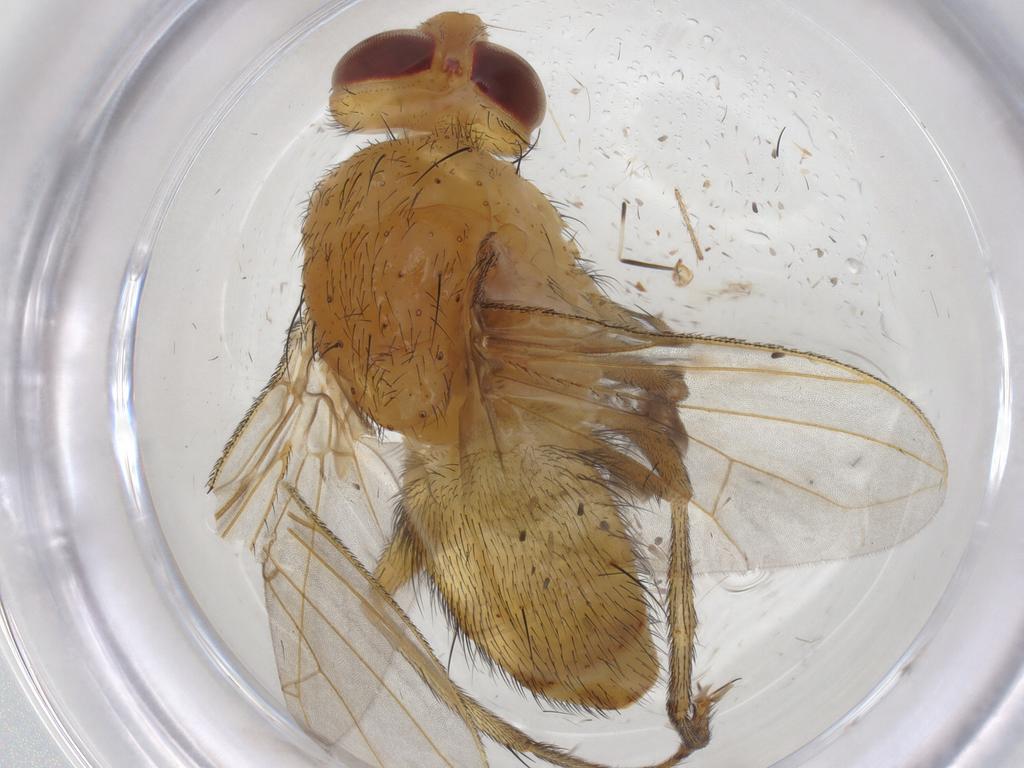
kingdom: Animalia
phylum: Arthropoda
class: Insecta
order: Diptera
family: Tachinidae
